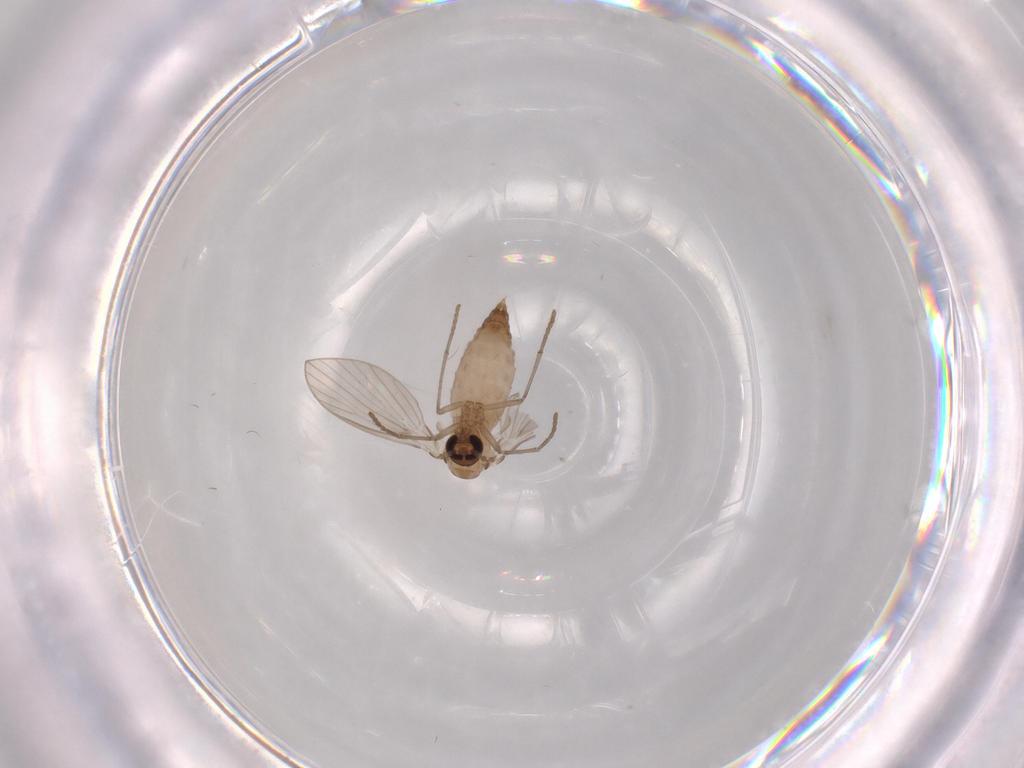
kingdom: Animalia
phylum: Arthropoda
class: Insecta
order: Diptera
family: Psychodidae
